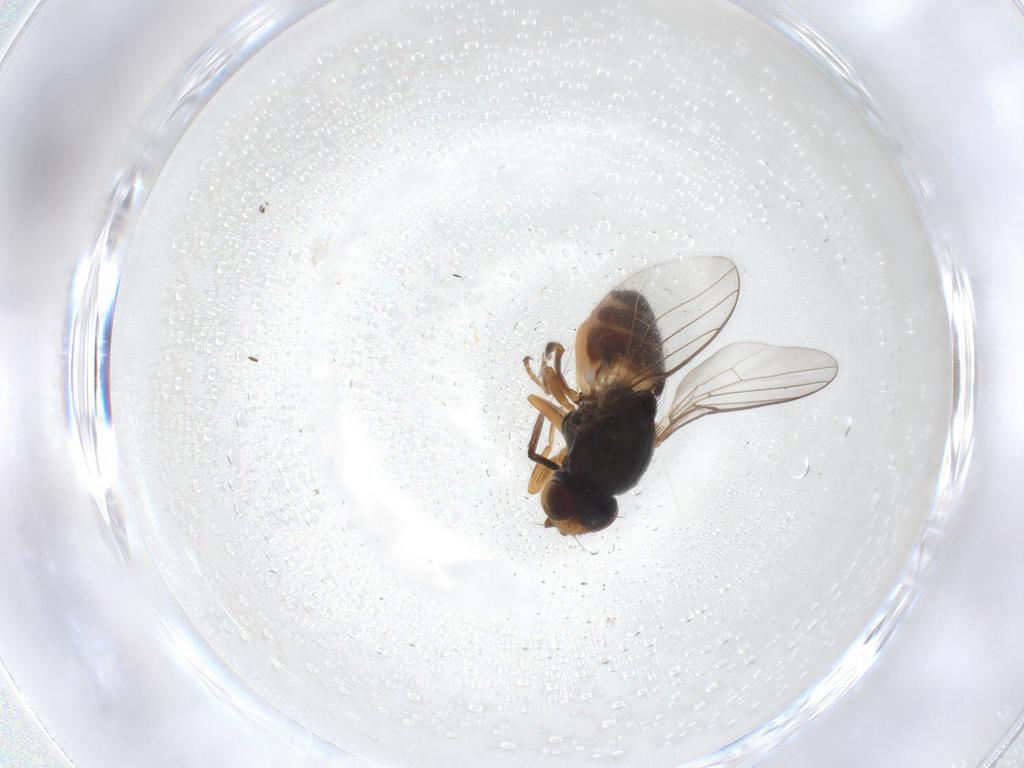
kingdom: Animalia
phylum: Arthropoda
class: Insecta
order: Diptera
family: Chloropidae
